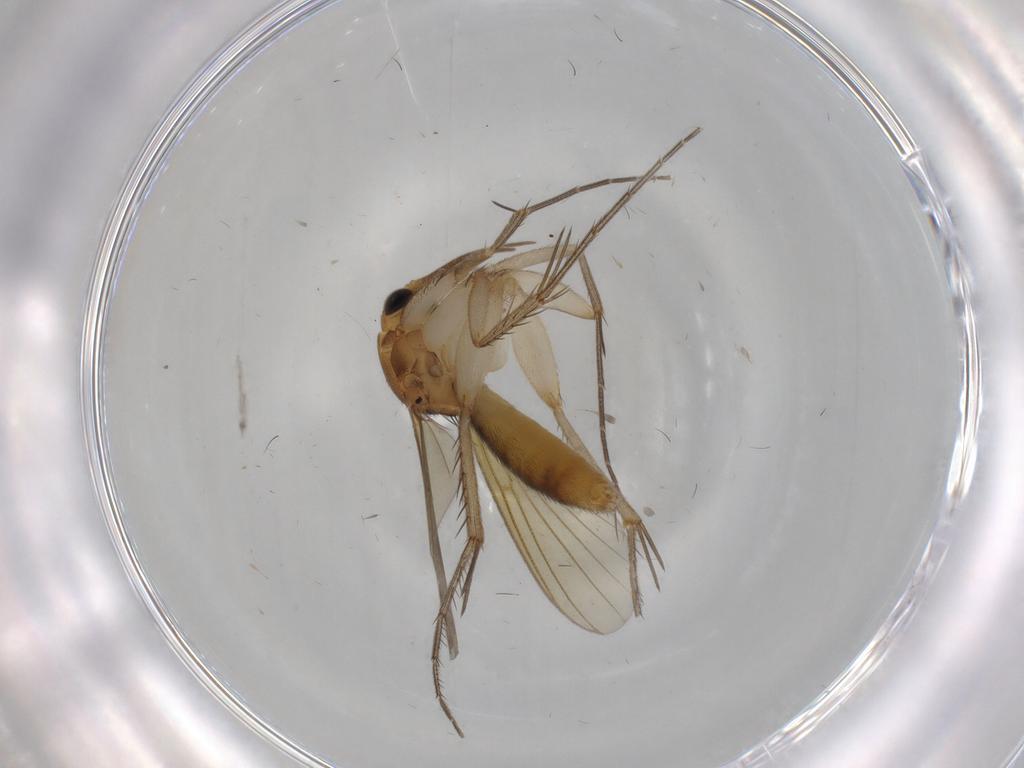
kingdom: Animalia
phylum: Arthropoda
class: Insecta
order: Diptera
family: Mycetophilidae
